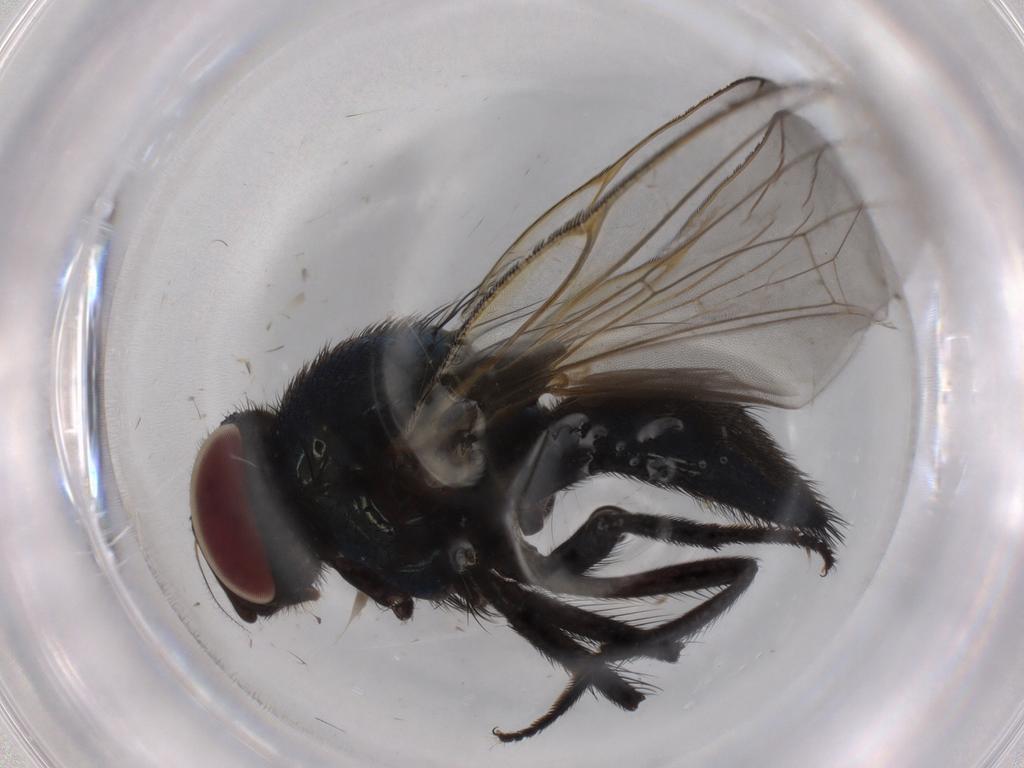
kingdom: Animalia
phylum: Arthropoda
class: Insecta
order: Diptera
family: Lonchaeidae
